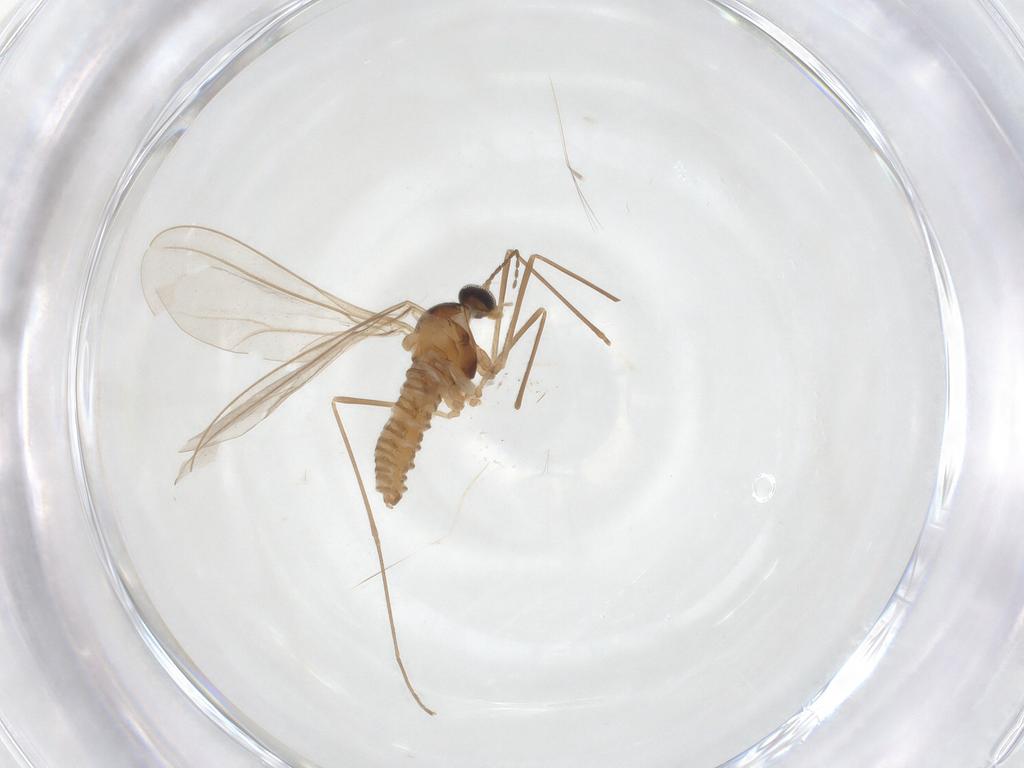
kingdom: Animalia
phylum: Arthropoda
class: Insecta
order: Diptera
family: Cecidomyiidae
